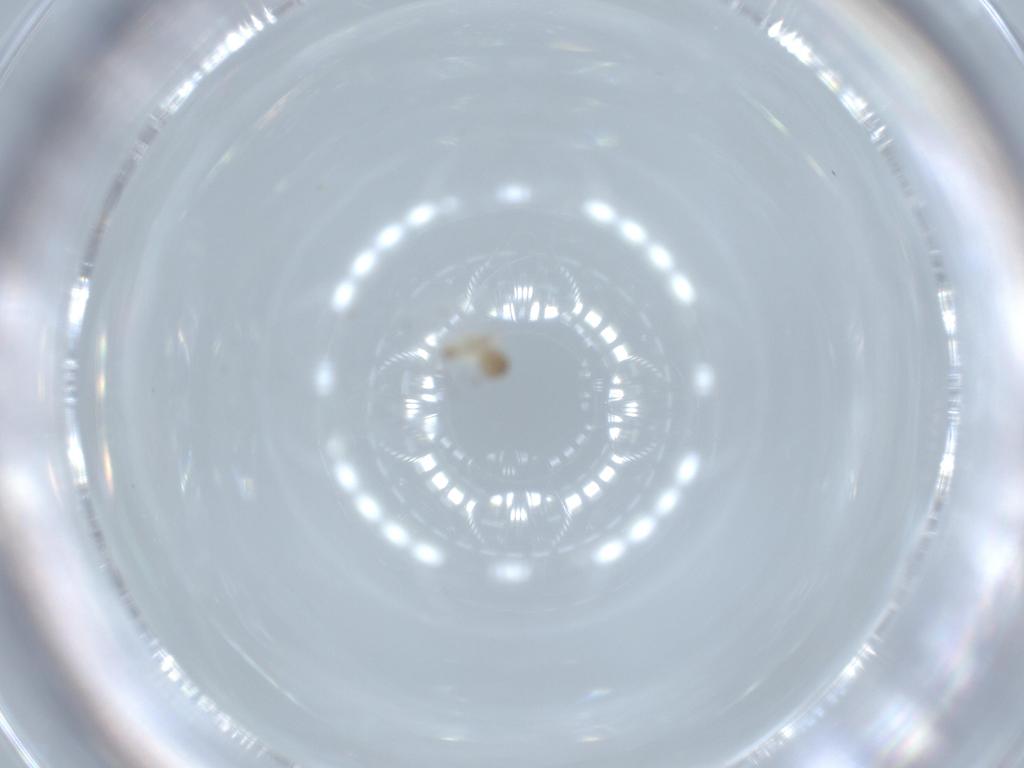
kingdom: Animalia
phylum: Arthropoda
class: Insecta
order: Diptera
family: Cecidomyiidae
